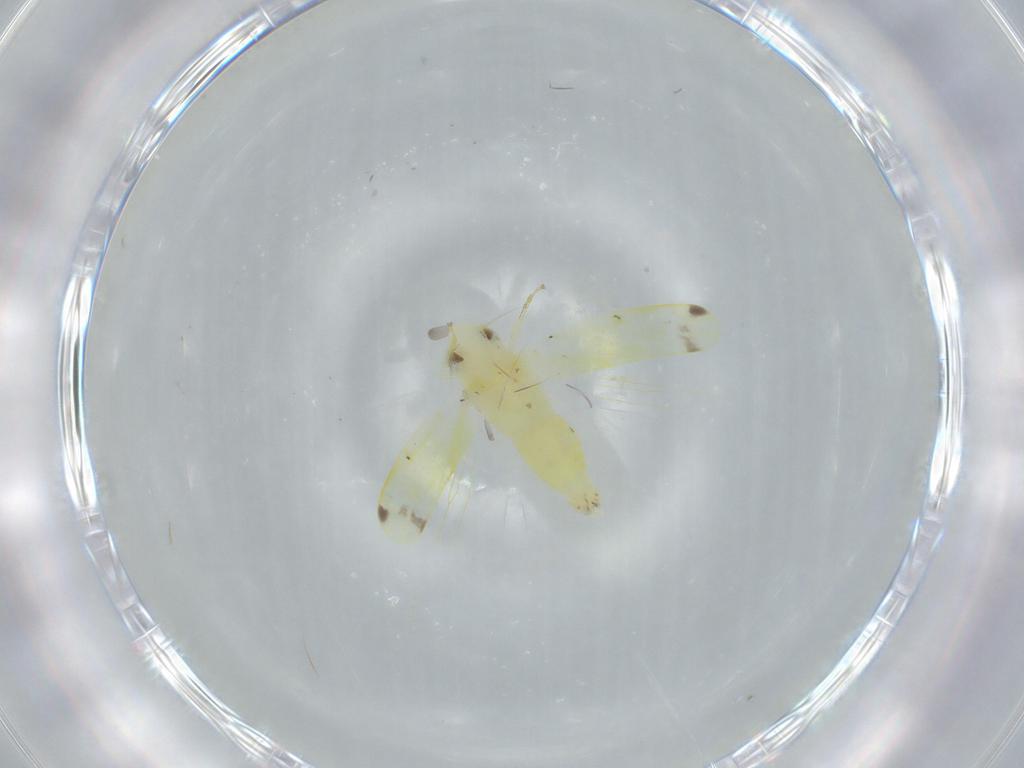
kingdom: Animalia
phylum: Arthropoda
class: Insecta
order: Hemiptera
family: Cicadellidae
